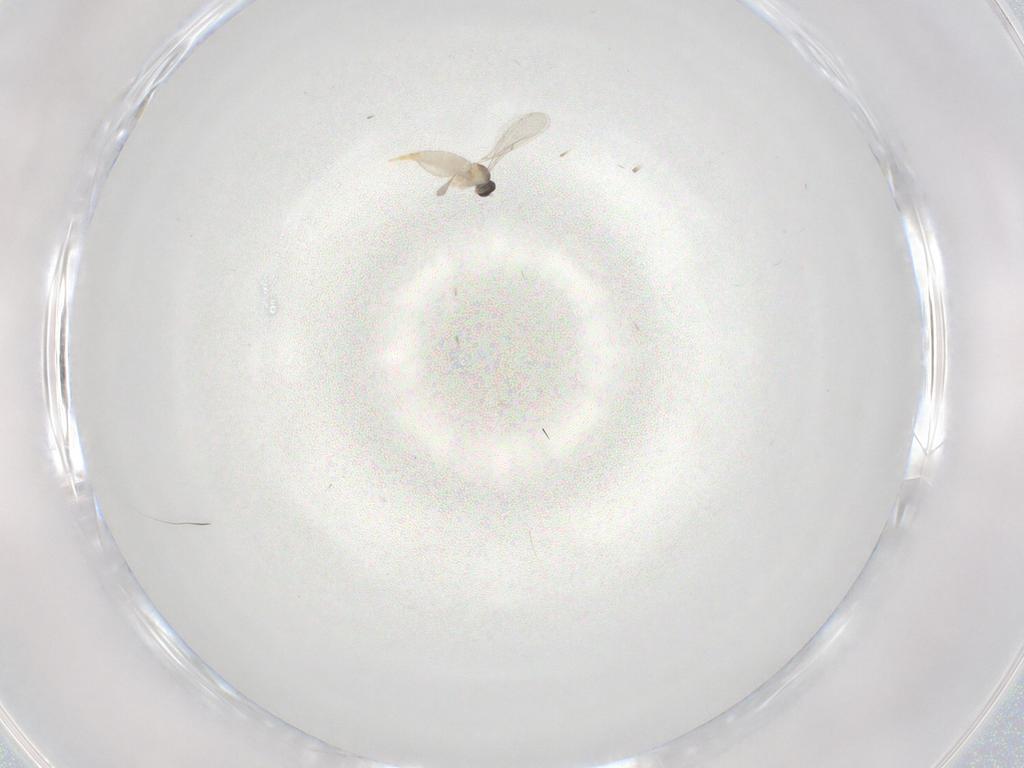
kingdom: Animalia
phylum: Arthropoda
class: Insecta
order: Diptera
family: Cecidomyiidae
